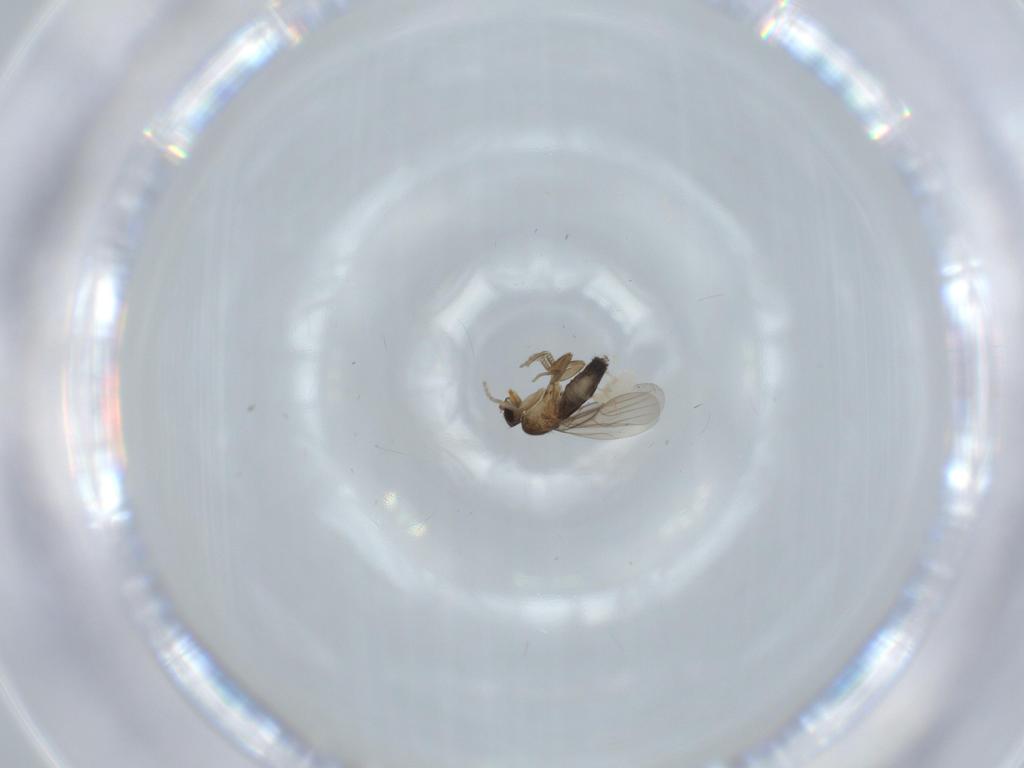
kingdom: Animalia
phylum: Arthropoda
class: Insecta
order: Diptera
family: Phoridae
